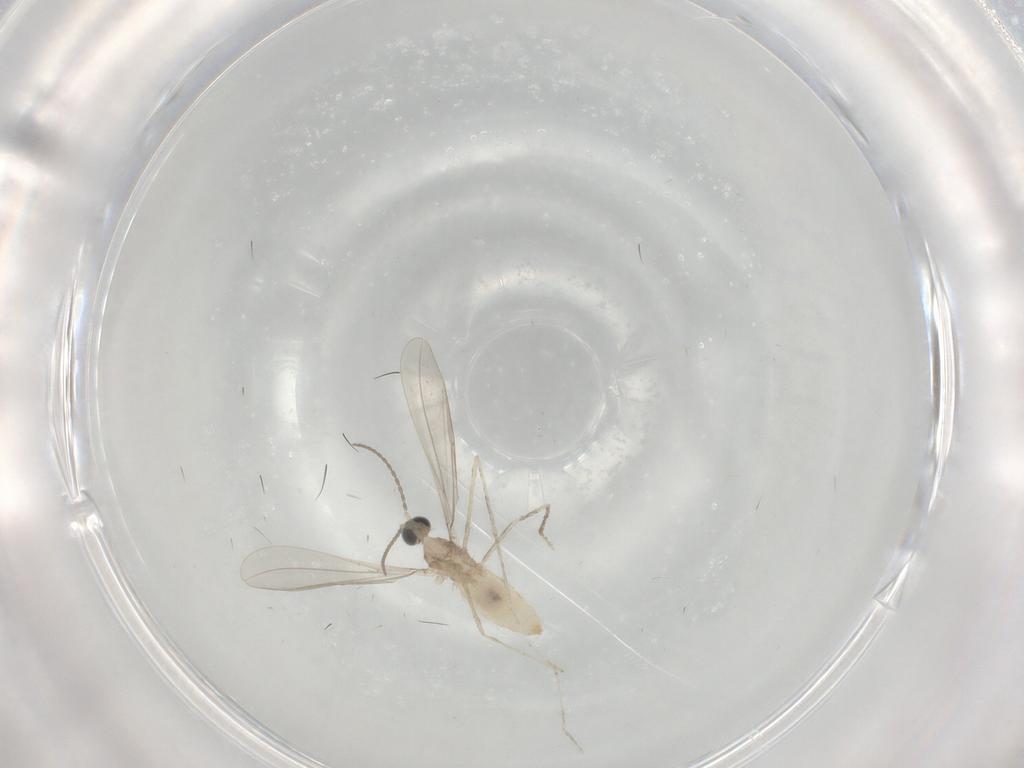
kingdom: Animalia
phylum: Arthropoda
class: Insecta
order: Diptera
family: Cecidomyiidae
